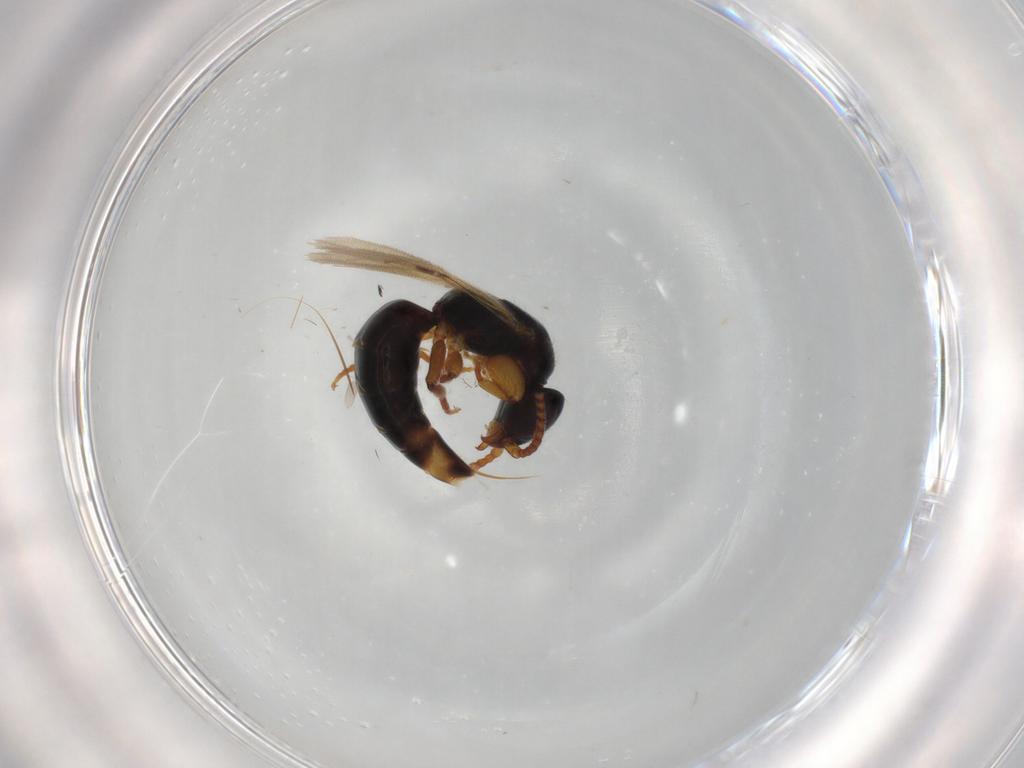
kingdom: Animalia
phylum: Arthropoda
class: Insecta
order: Hymenoptera
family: Bethylidae
